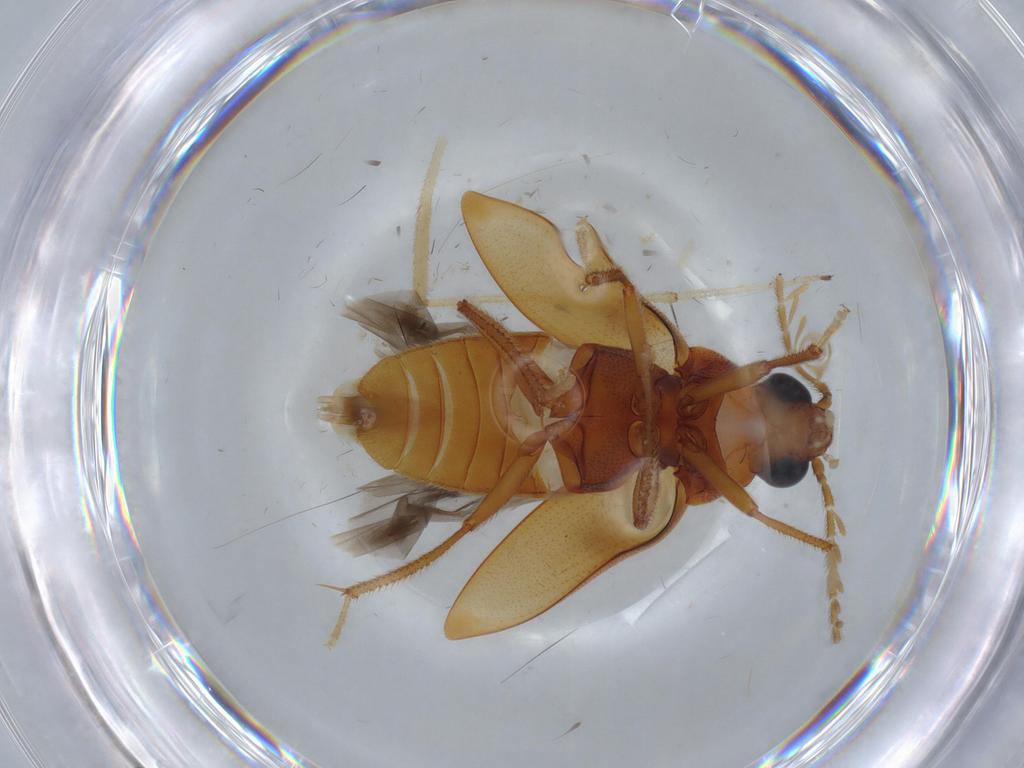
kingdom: Animalia
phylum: Arthropoda
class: Insecta
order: Coleoptera
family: Ptilodactylidae
